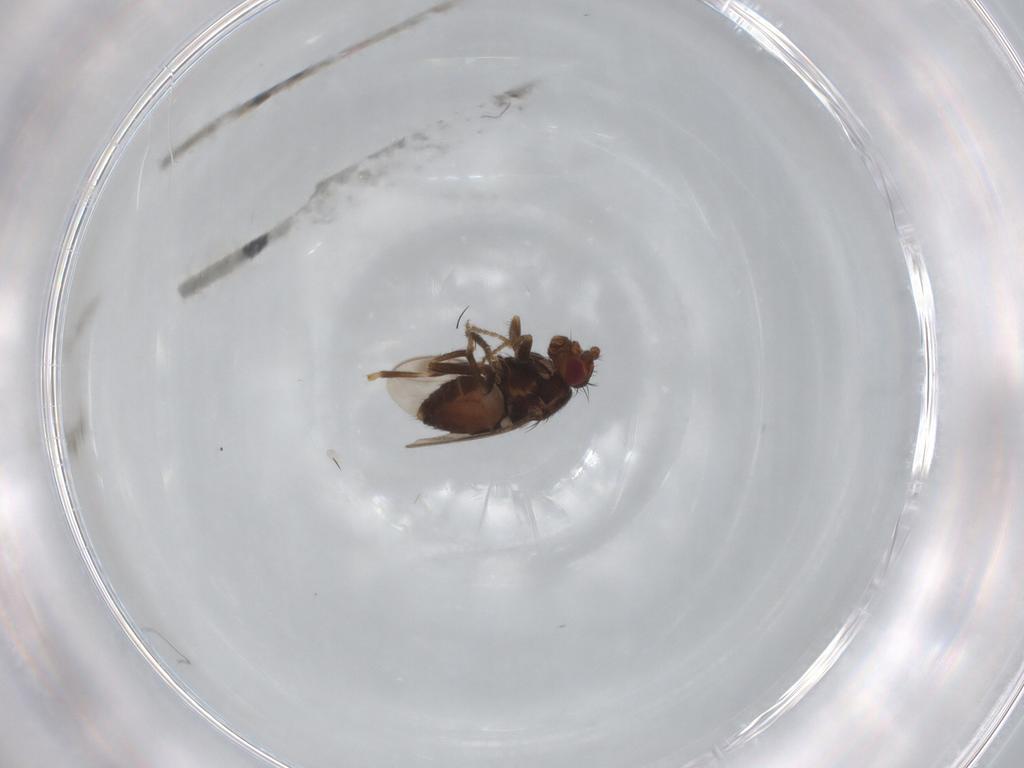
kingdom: Animalia
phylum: Arthropoda
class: Insecta
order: Diptera
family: Sphaeroceridae
